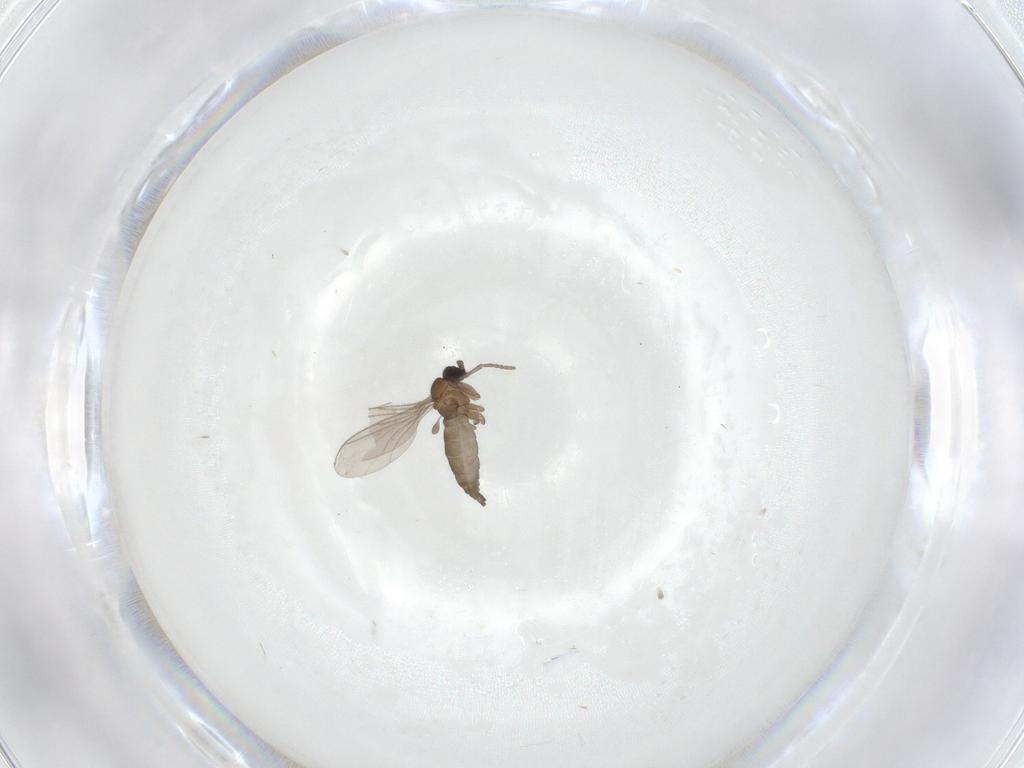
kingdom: Animalia
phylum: Arthropoda
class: Insecta
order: Diptera
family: Sciaridae
